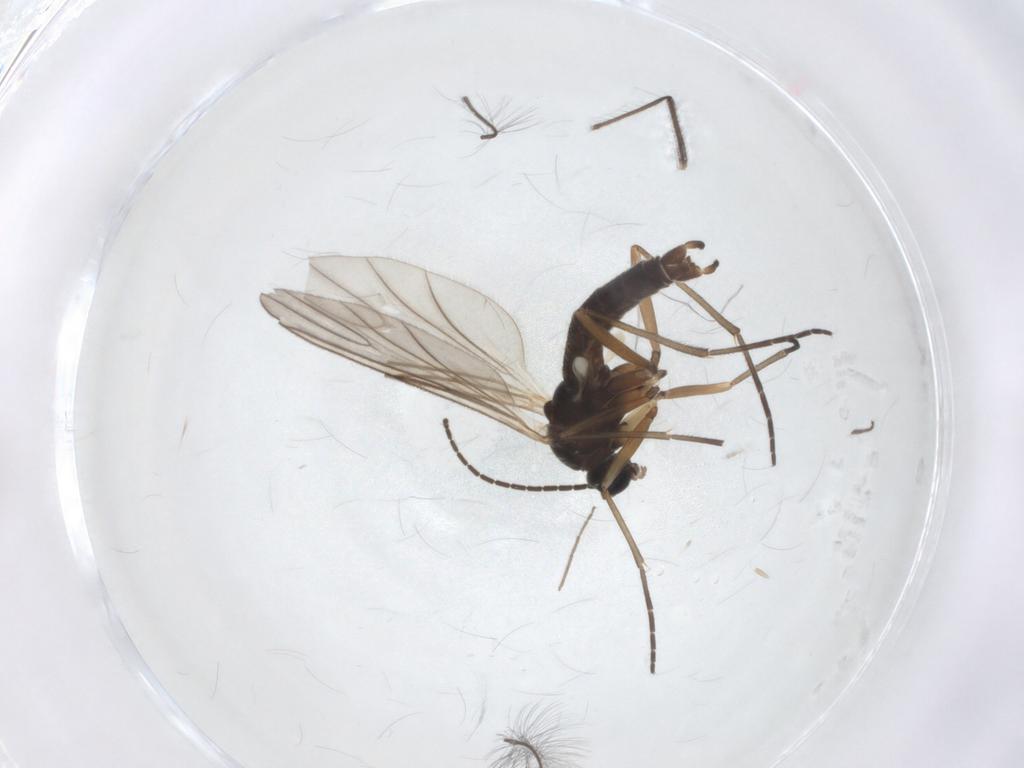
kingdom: Animalia
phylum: Arthropoda
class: Insecta
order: Diptera
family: Sciaridae
